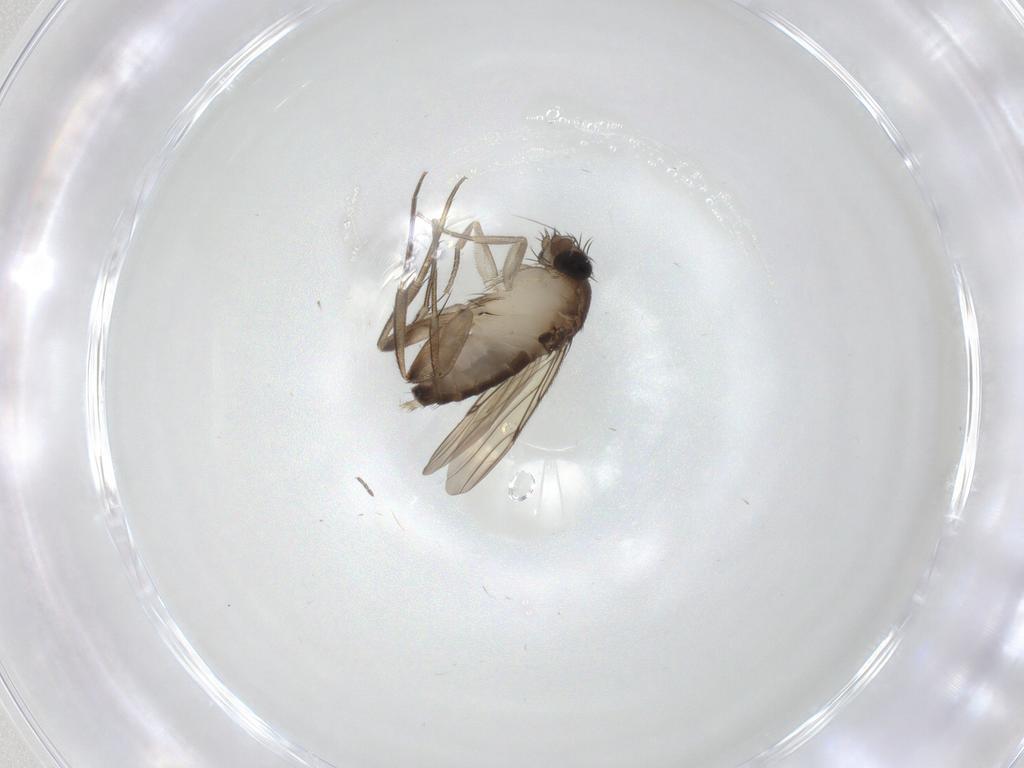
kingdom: Animalia
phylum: Arthropoda
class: Insecta
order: Diptera
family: Sciaridae
